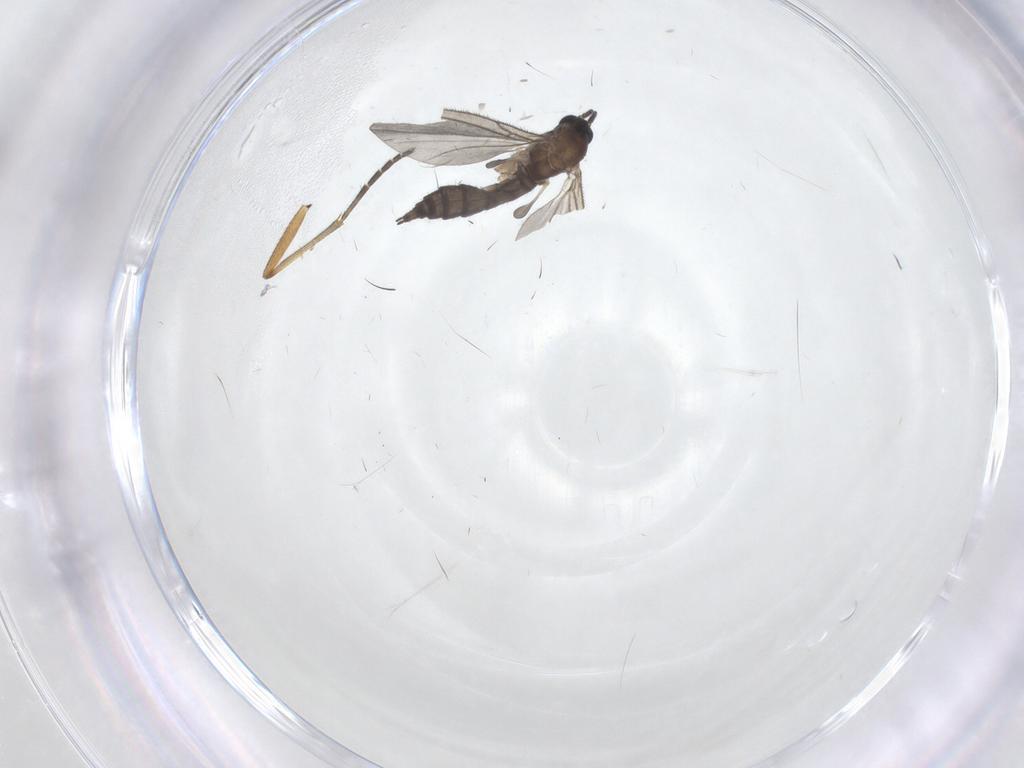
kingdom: Animalia
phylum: Arthropoda
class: Insecta
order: Diptera
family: Sciaridae
